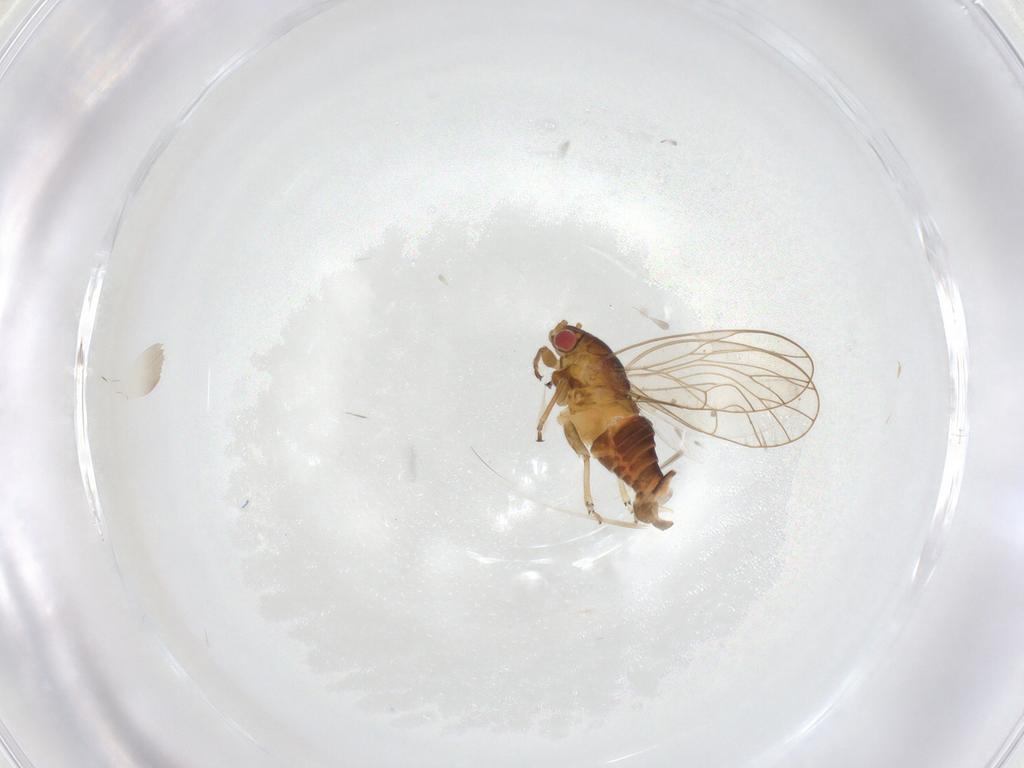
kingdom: Animalia
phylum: Arthropoda
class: Insecta
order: Hemiptera
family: Psyllidae
